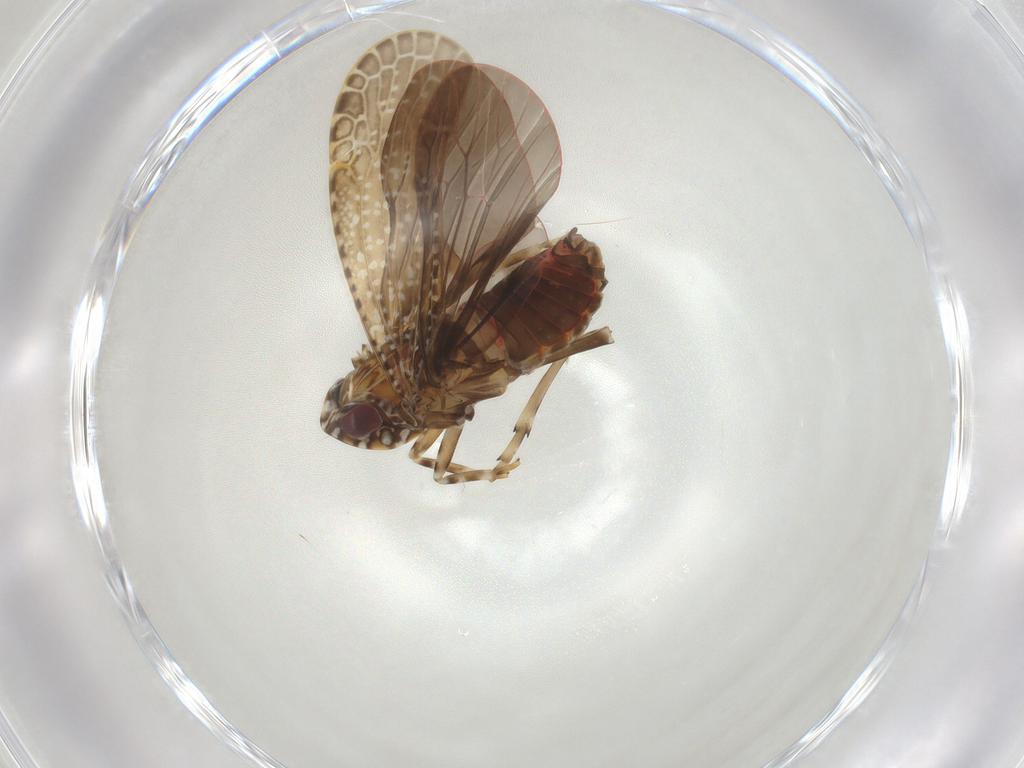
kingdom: Animalia
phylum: Arthropoda
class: Insecta
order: Hemiptera
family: Achilidae
